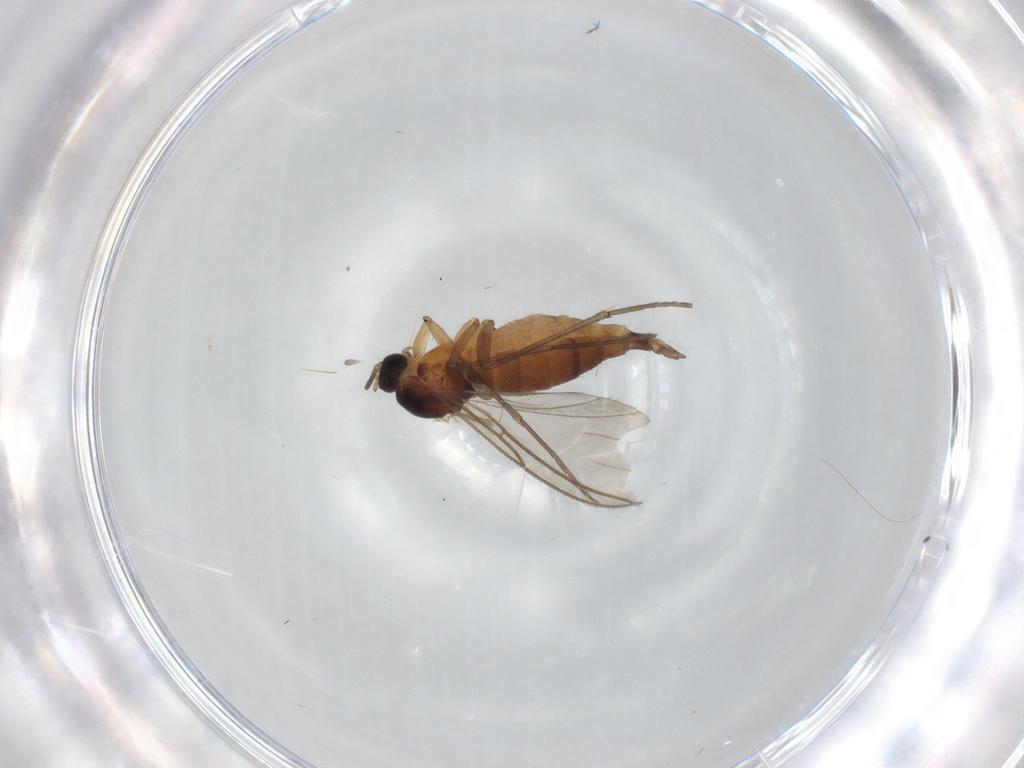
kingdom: Animalia
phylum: Arthropoda
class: Insecta
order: Diptera
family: Sciaridae
